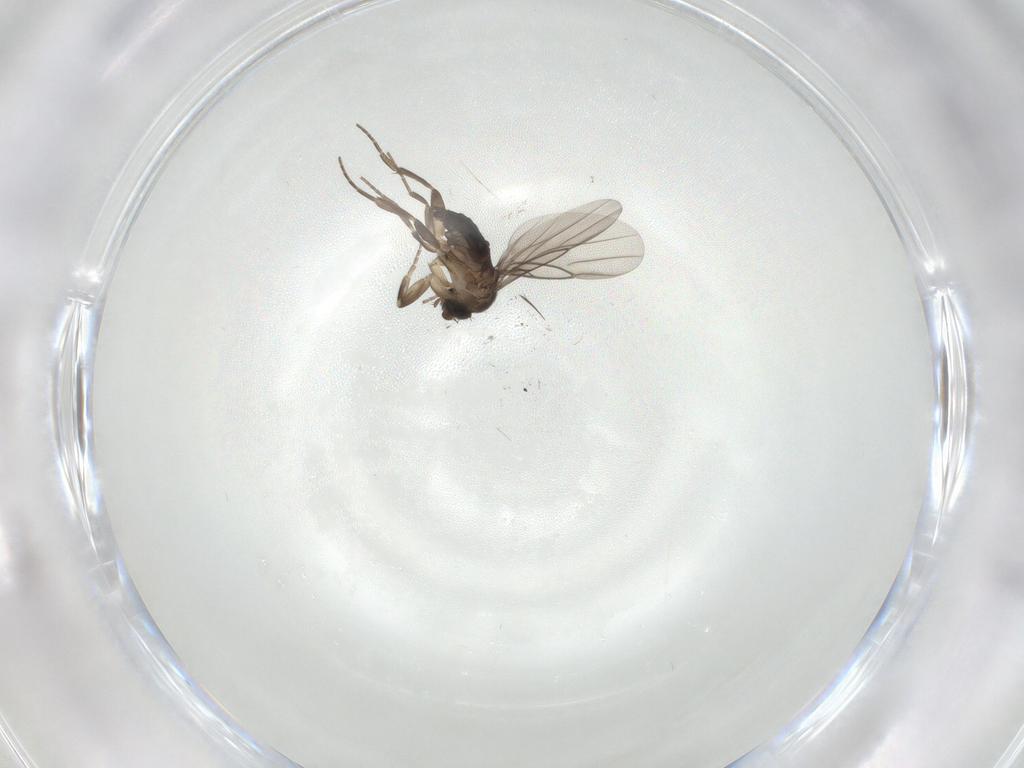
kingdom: Animalia
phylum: Arthropoda
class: Insecta
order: Diptera
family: Ceratopogonidae
